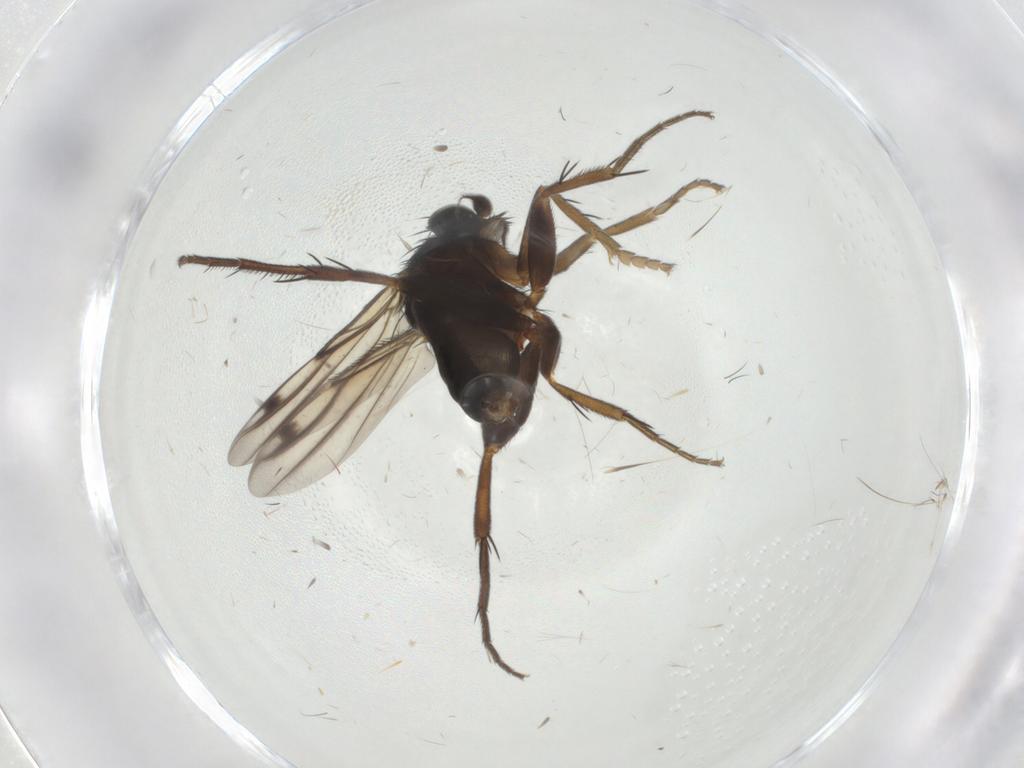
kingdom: Animalia
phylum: Arthropoda
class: Insecta
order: Diptera
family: Phoridae
